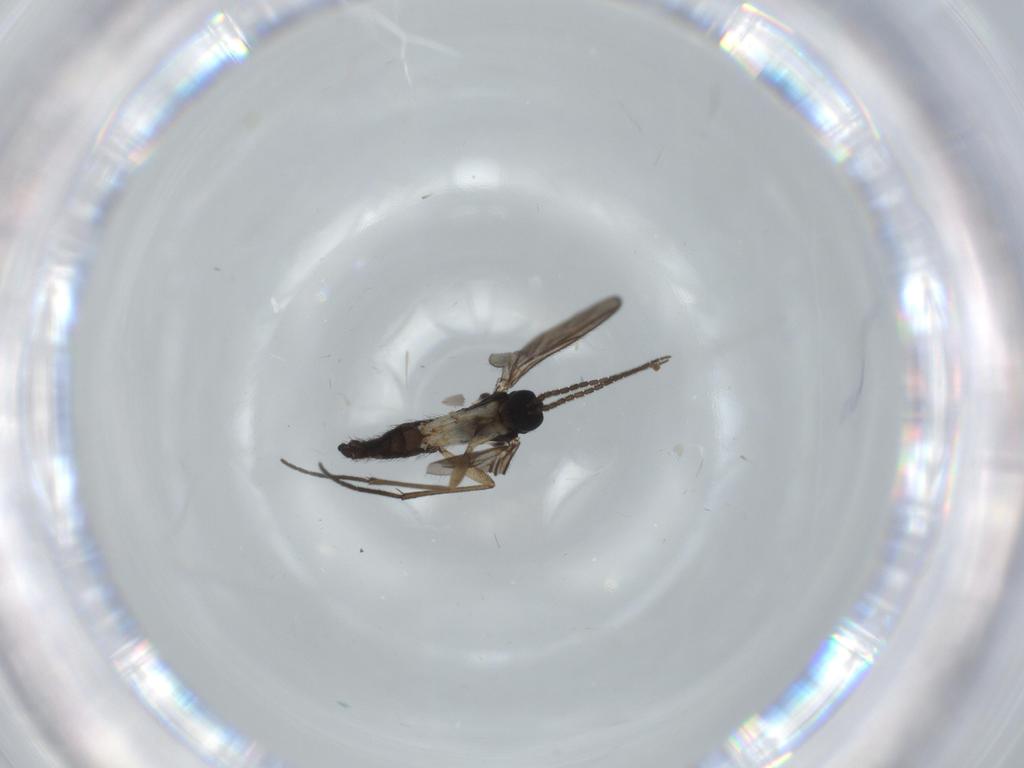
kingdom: Animalia
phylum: Arthropoda
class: Insecta
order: Diptera
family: Sciaridae
